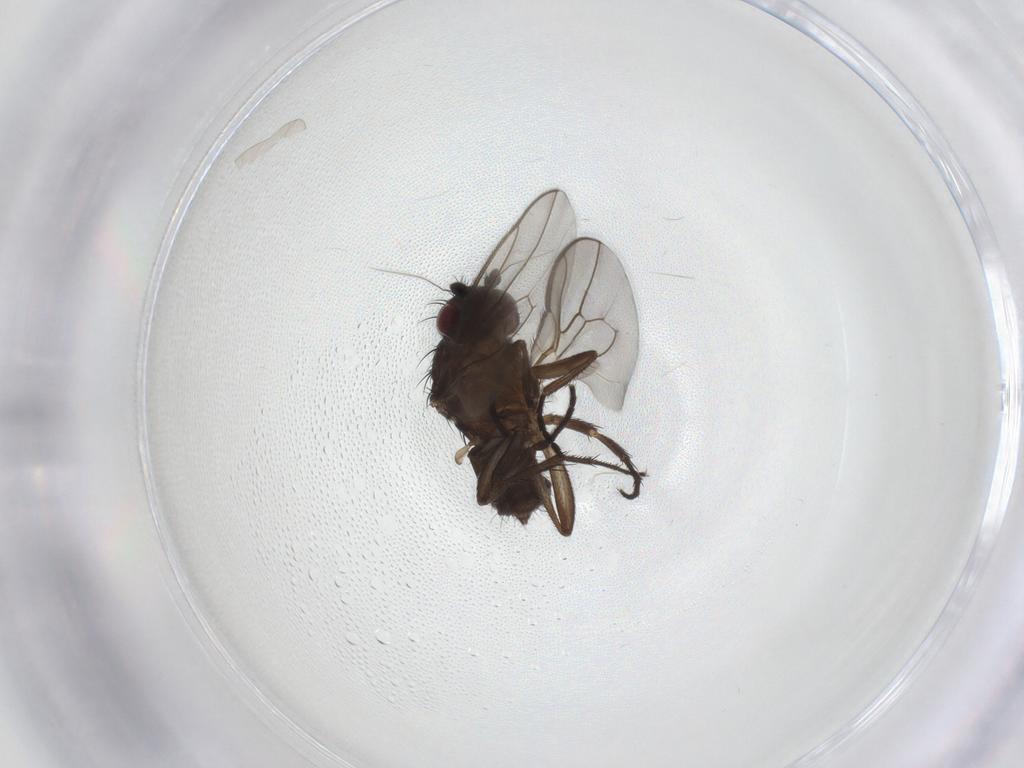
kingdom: Animalia
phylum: Arthropoda
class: Insecta
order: Diptera
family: Sphaeroceridae
